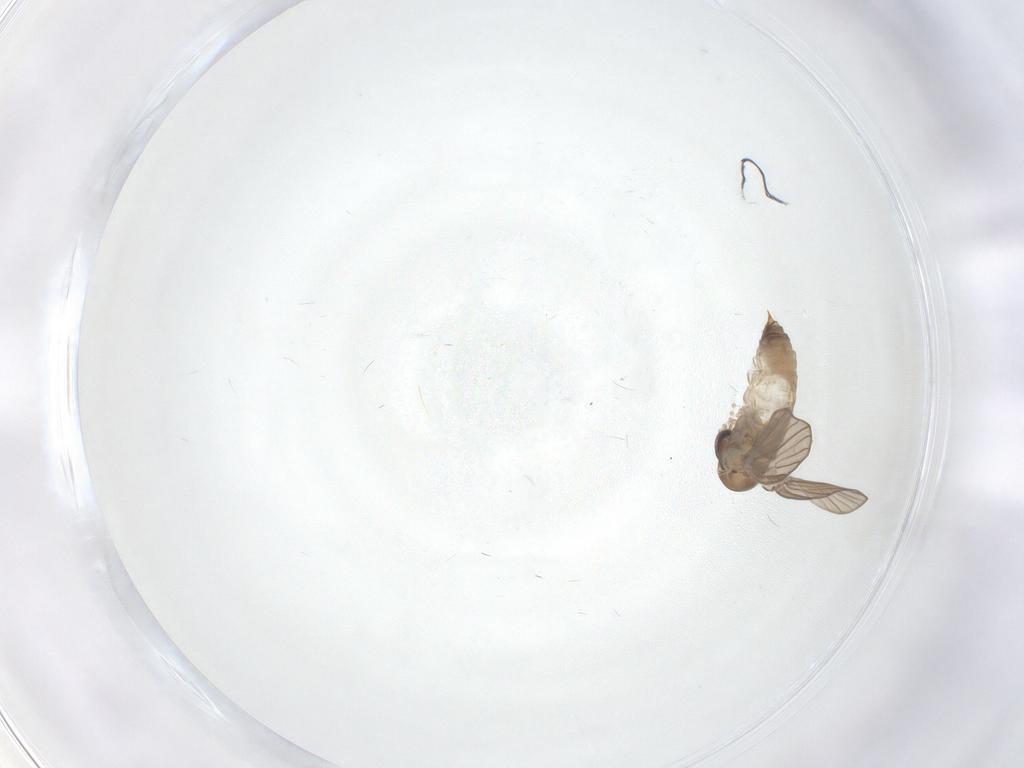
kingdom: Animalia
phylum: Arthropoda
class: Insecta
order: Diptera
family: Psychodidae
